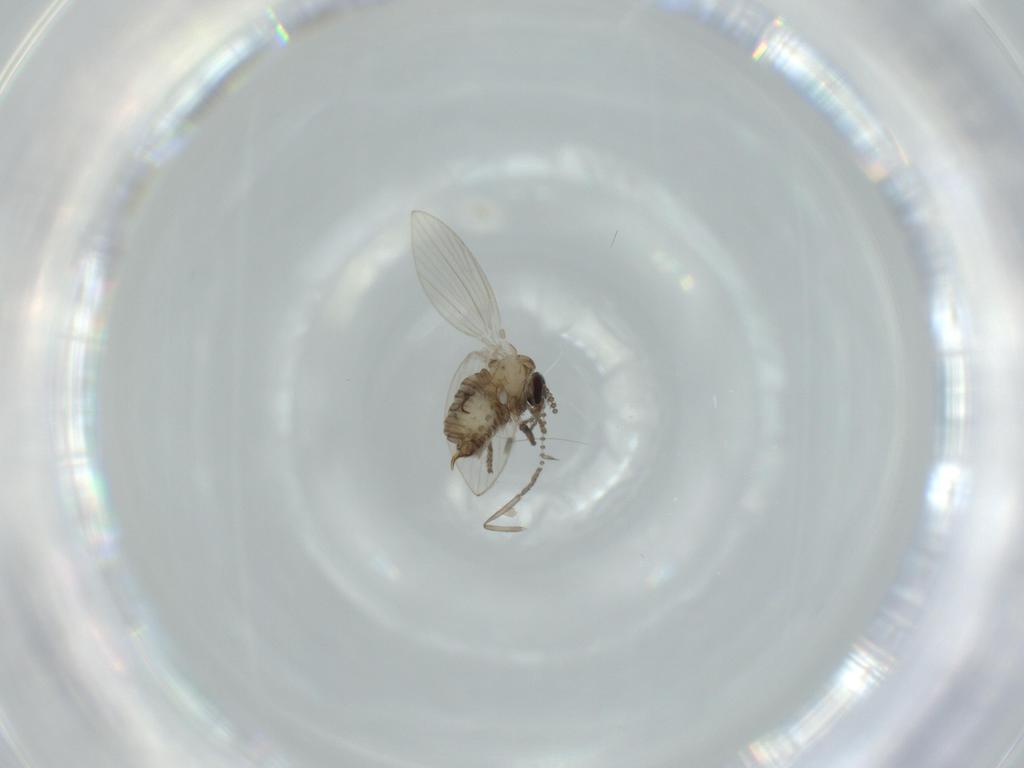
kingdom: Animalia
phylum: Arthropoda
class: Insecta
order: Diptera
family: Psychodidae
